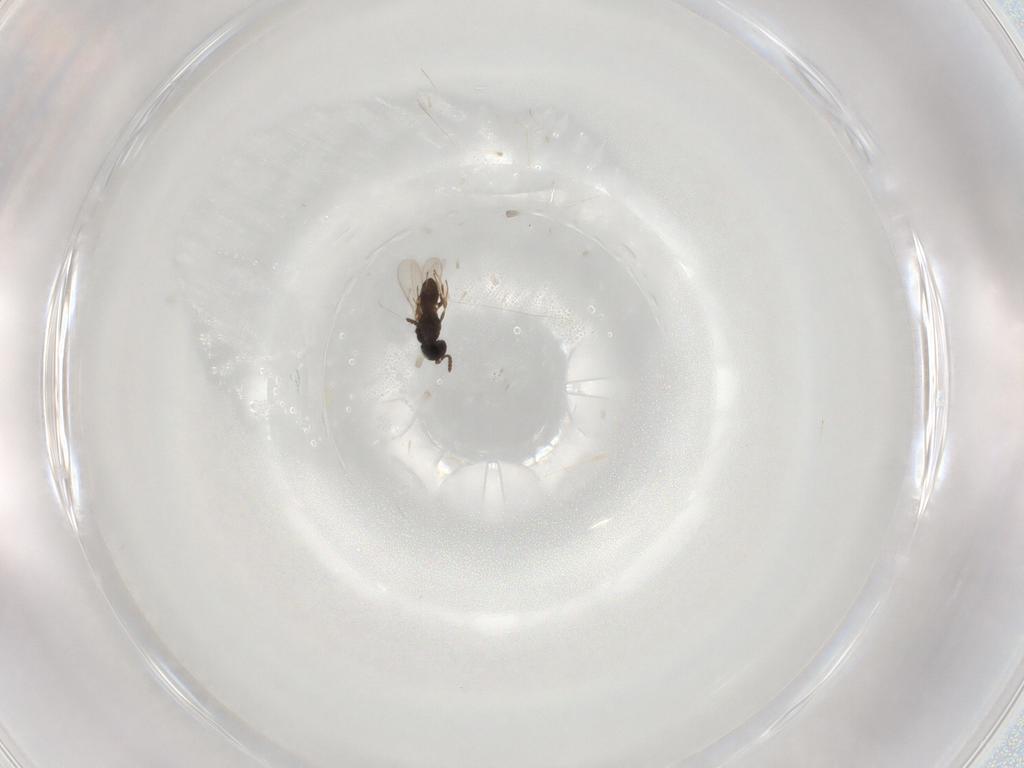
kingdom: Animalia
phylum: Arthropoda
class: Insecta
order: Hymenoptera
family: Scelionidae
